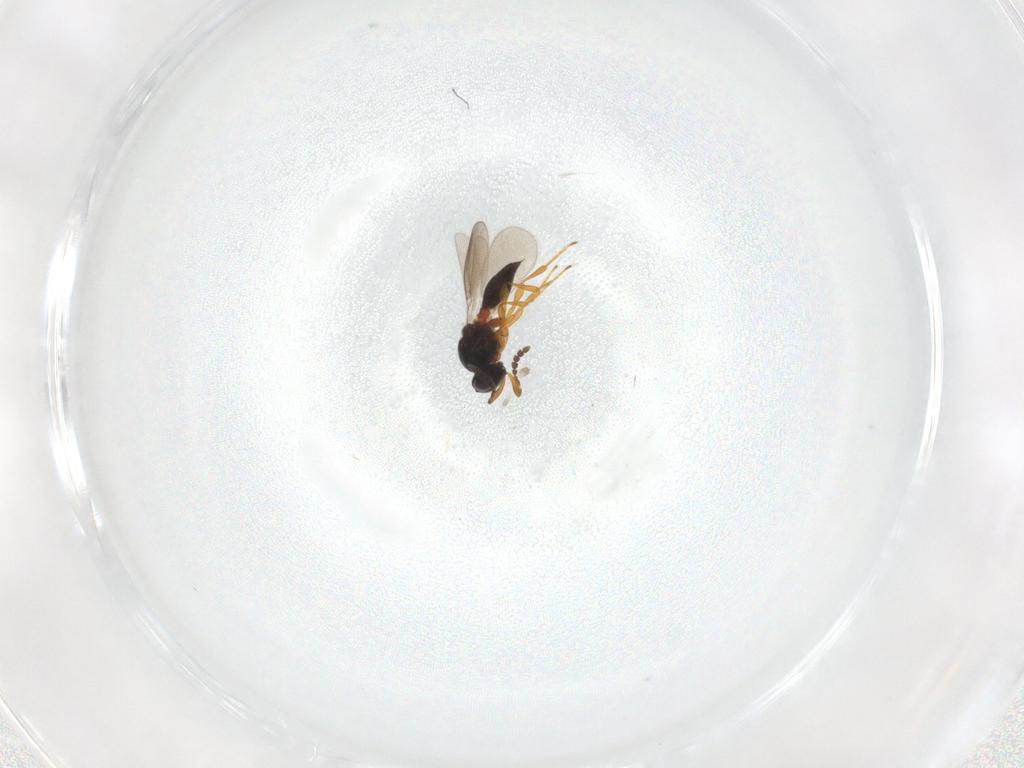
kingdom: Animalia
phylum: Arthropoda
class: Insecta
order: Hymenoptera
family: Platygastridae
